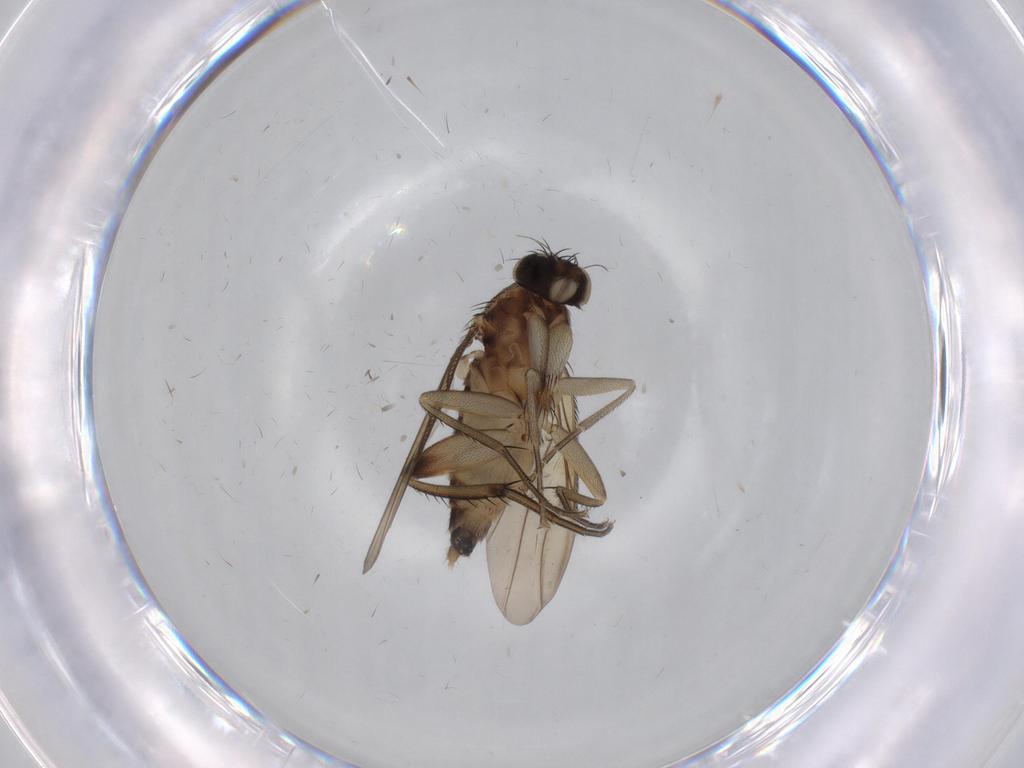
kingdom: Animalia
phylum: Arthropoda
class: Insecta
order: Diptera
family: Phoridae
